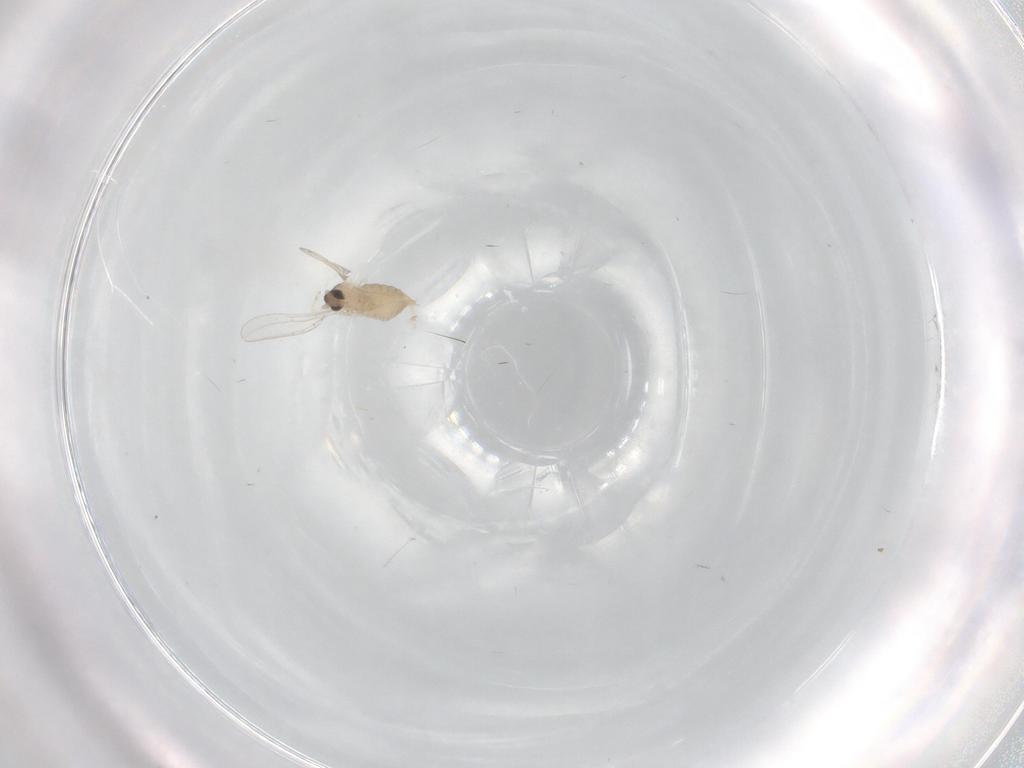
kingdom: Animalia
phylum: Arthropoda
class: Insecta
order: Diptera
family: Cecidomyiidae
